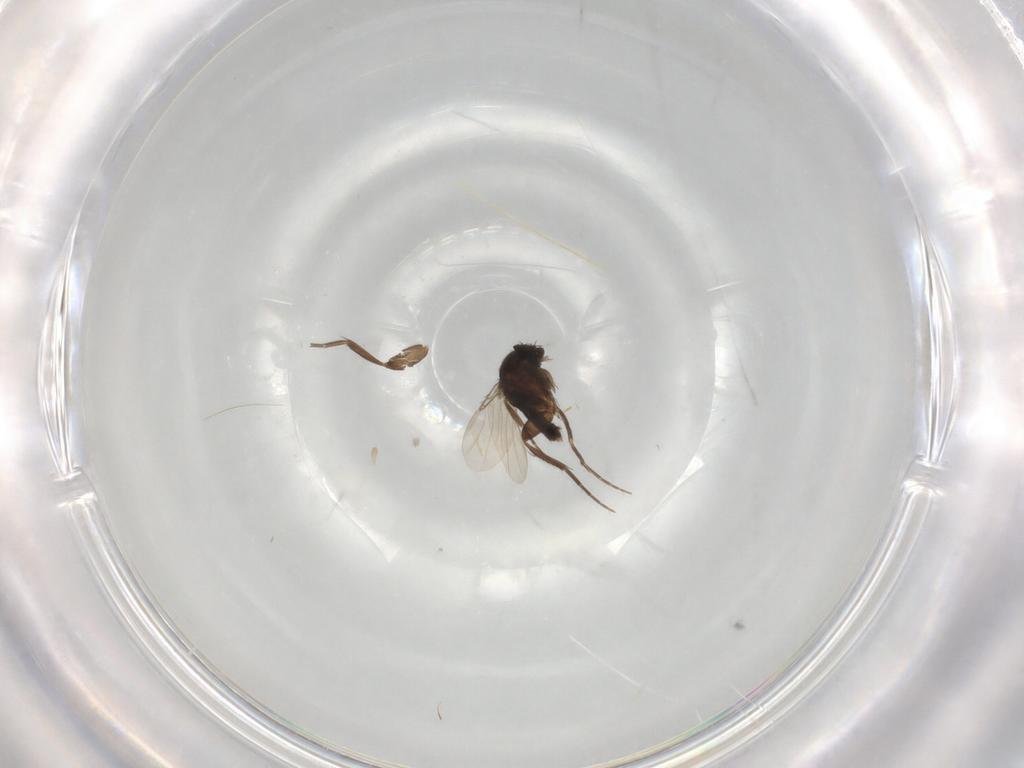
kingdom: Animalia
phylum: Arthropoda
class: Insecta
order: Diptera
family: Phoridae
